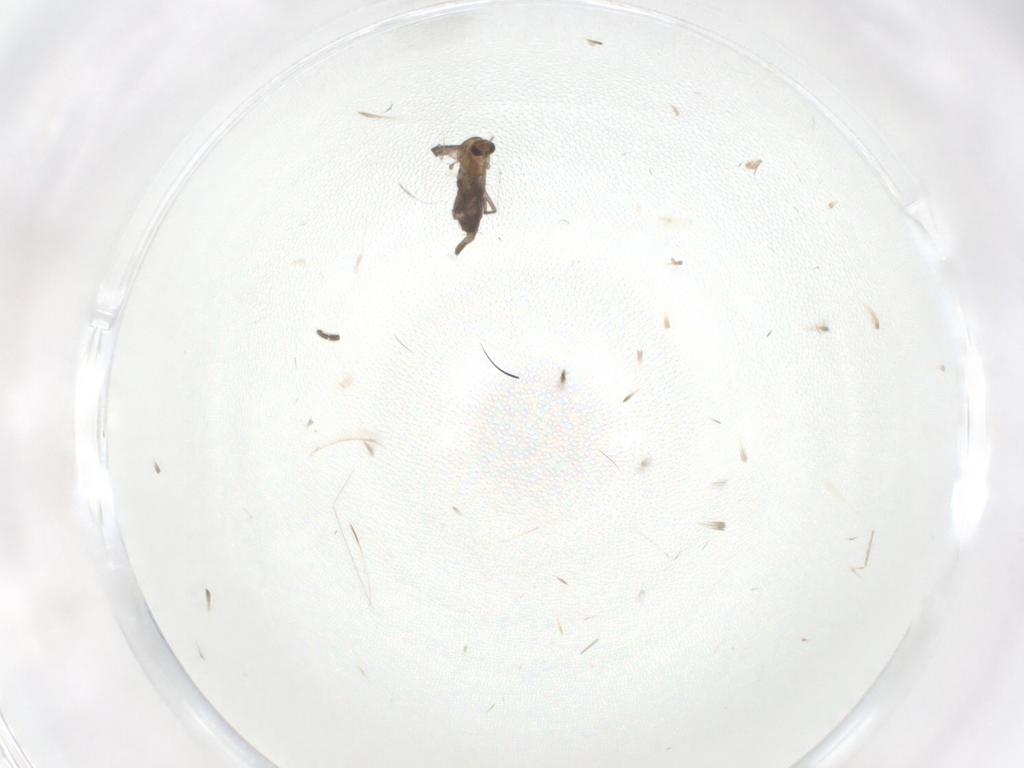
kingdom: Animalia
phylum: Arthropoda
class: Insecta
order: Diptera
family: Chironomidae
